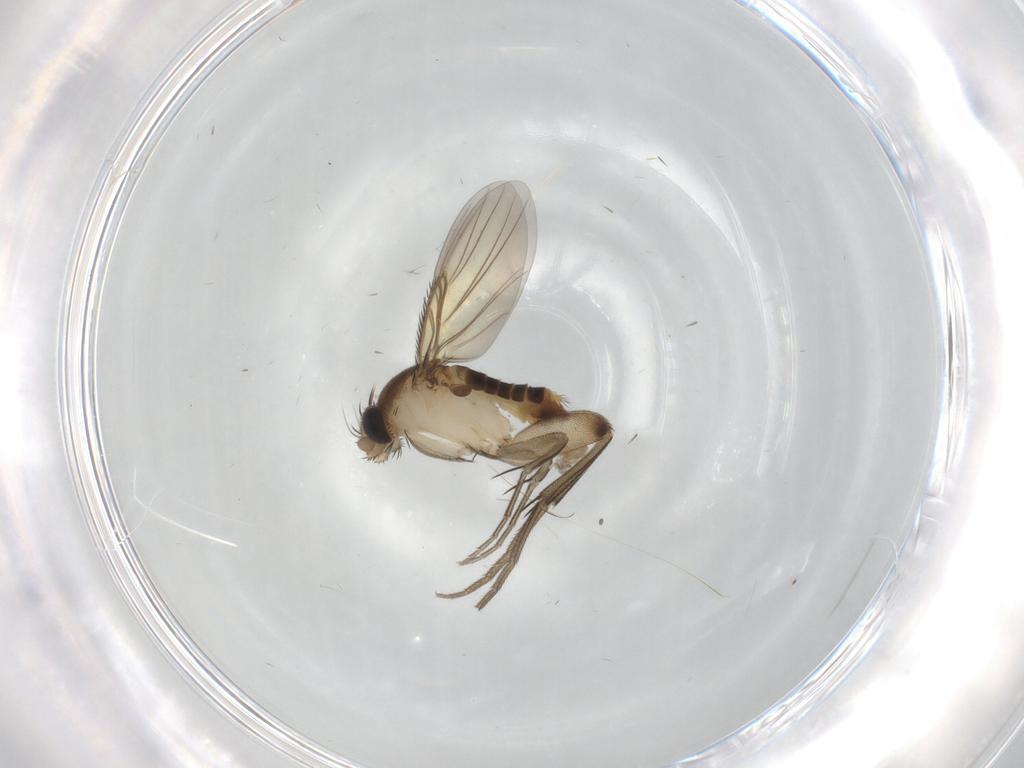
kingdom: Animalia
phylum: Arthropoda
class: Insecta
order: Diptera
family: Phoridae
